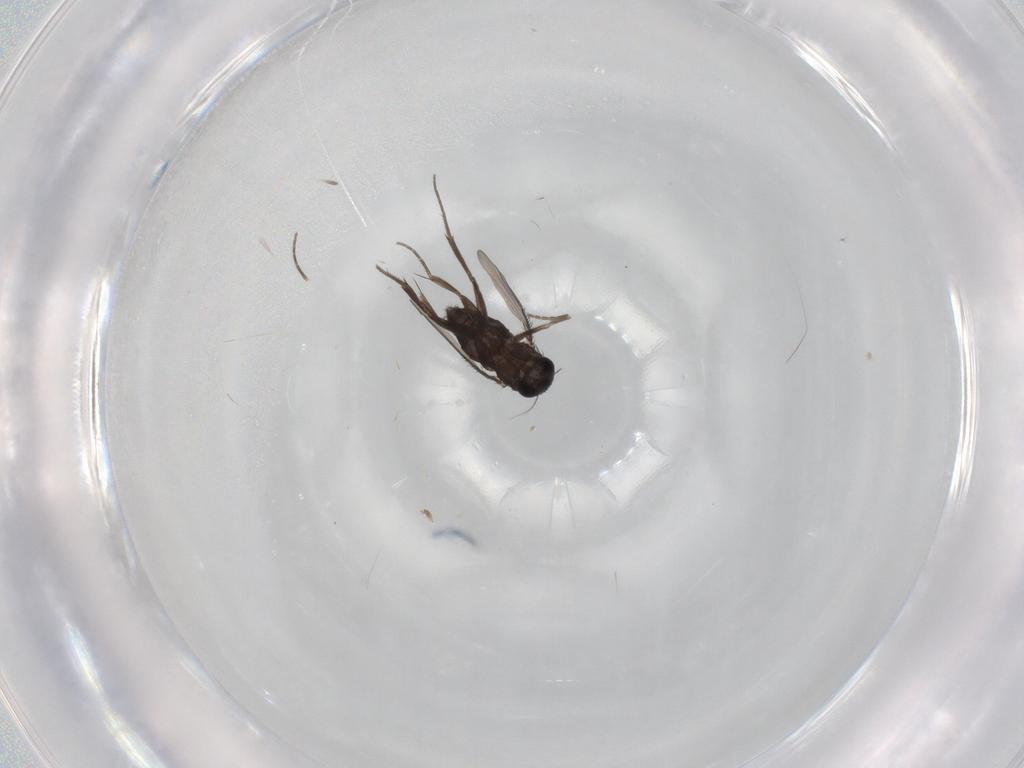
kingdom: Animalia
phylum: Arthropoda
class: Insecta
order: Diptera
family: Phoridae
